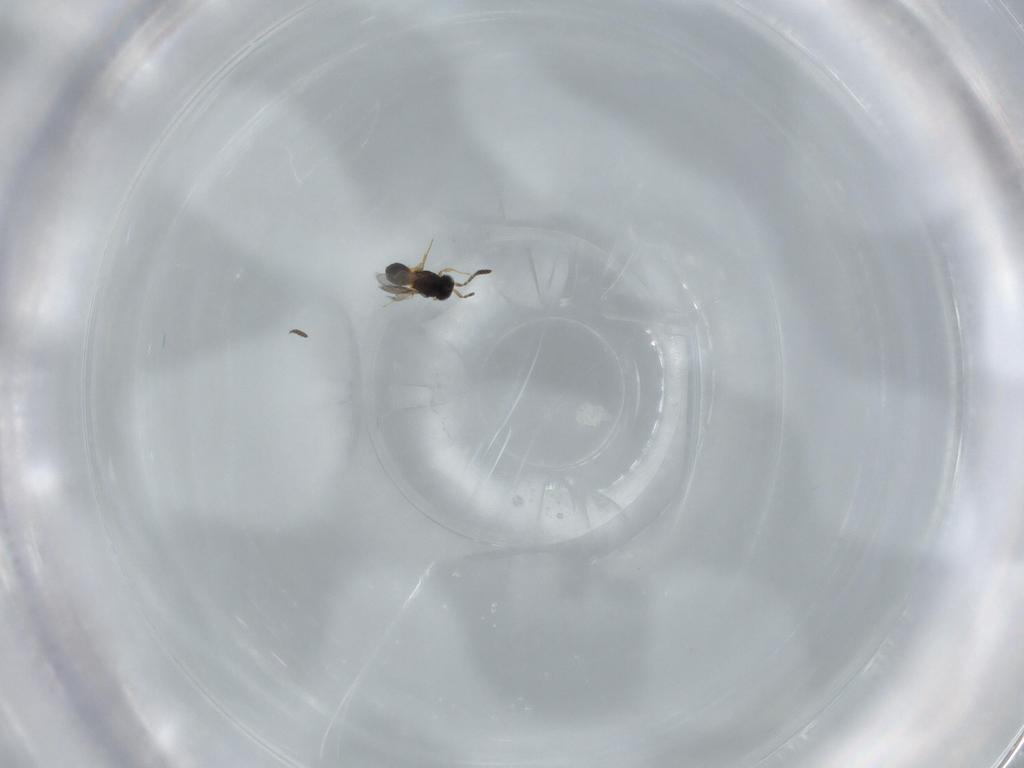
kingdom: Animalia
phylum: Arthropoda
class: Insecta
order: Hymenoptera
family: Scelionidae
